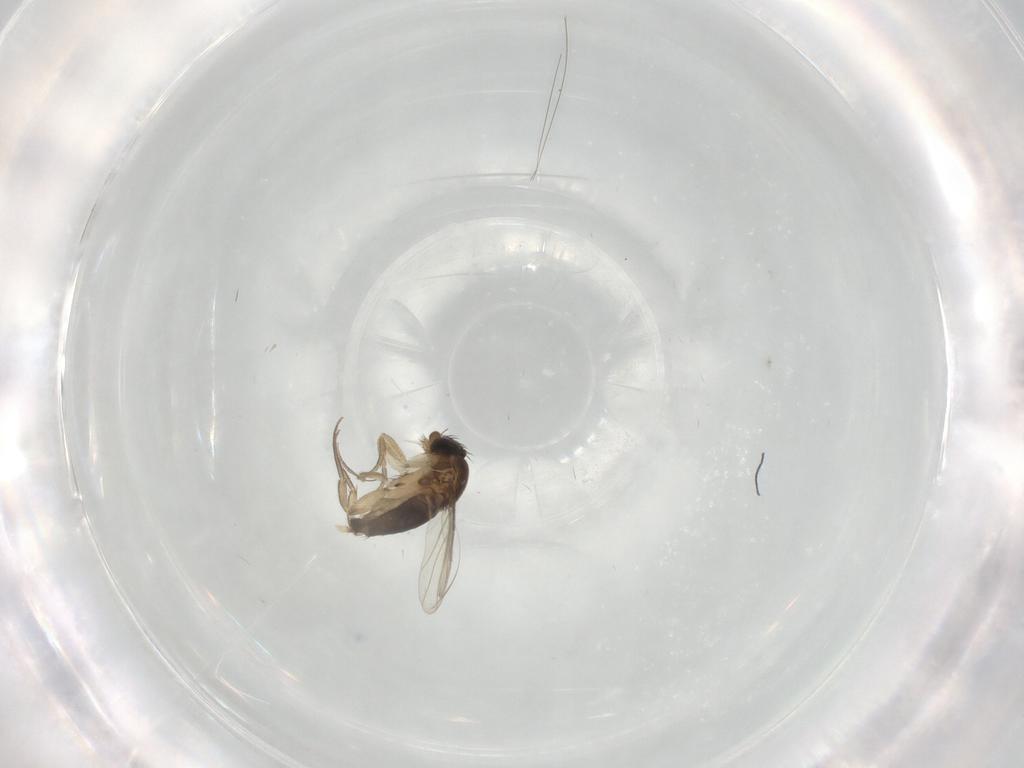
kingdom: Animalia
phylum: Arthropoda
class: Insecta
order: Diptera
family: Phoridae
